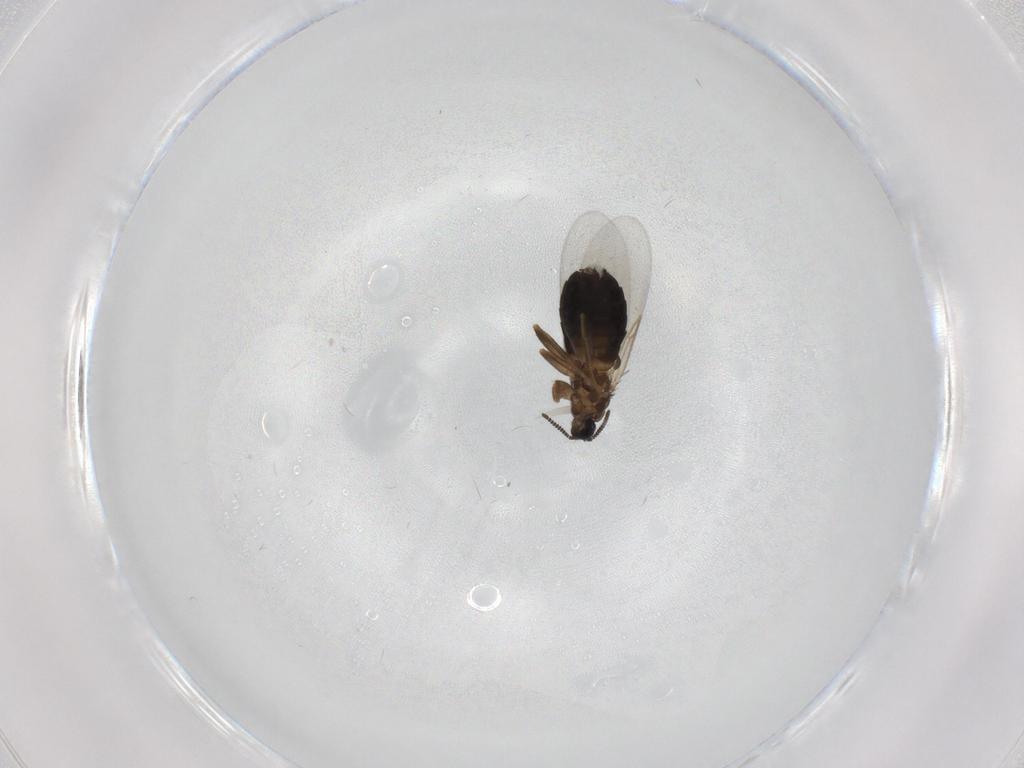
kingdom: Animalia
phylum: Arthropoda
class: Insecta
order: Diptera
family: Scatopsidae
